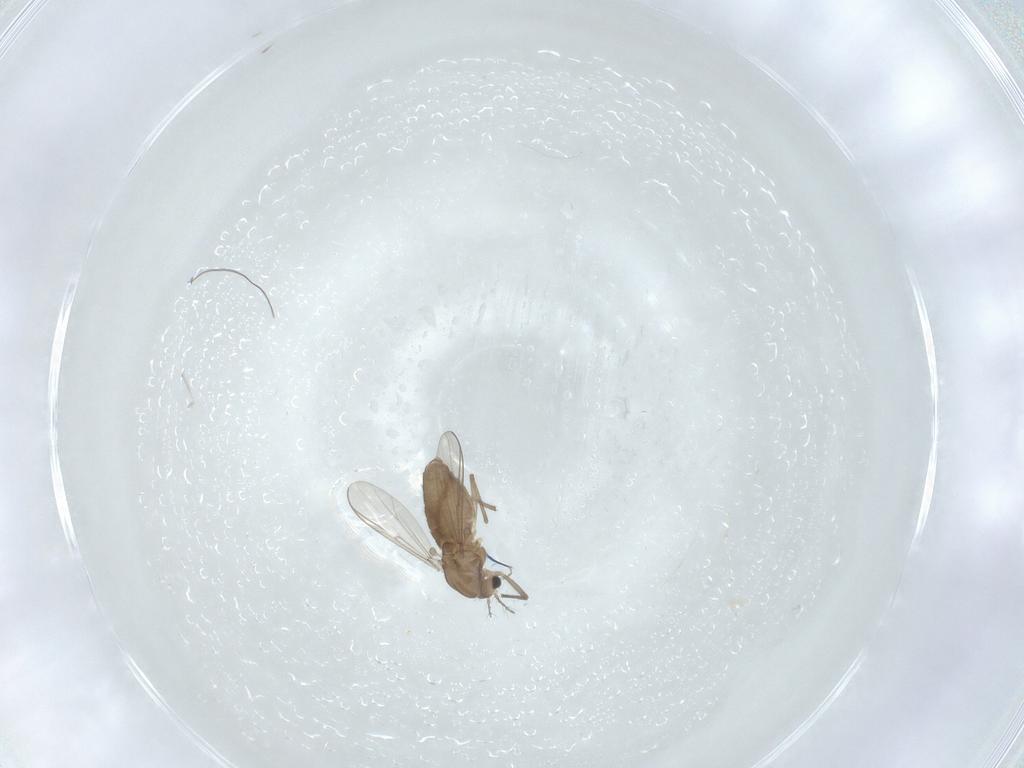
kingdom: Animalia
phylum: Arthropoda
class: Insecta
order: Diptera
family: Chironomidae
